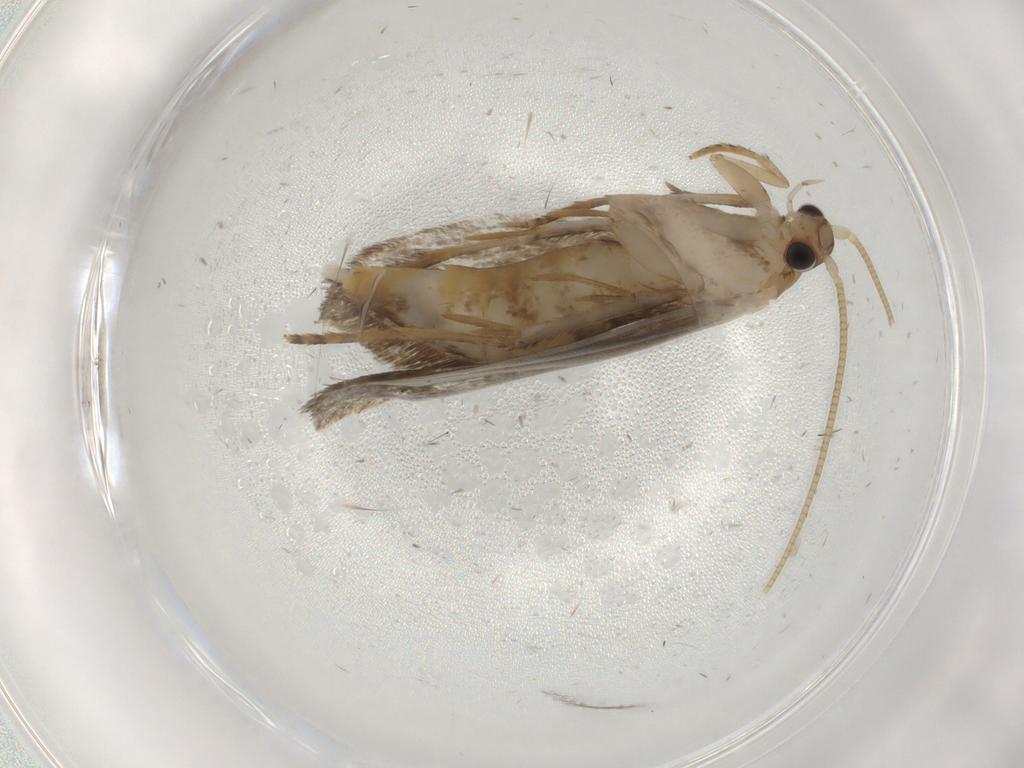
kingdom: Animalia
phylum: Arthropoda
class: Insecta
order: Lepidoptera
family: Tineidae
